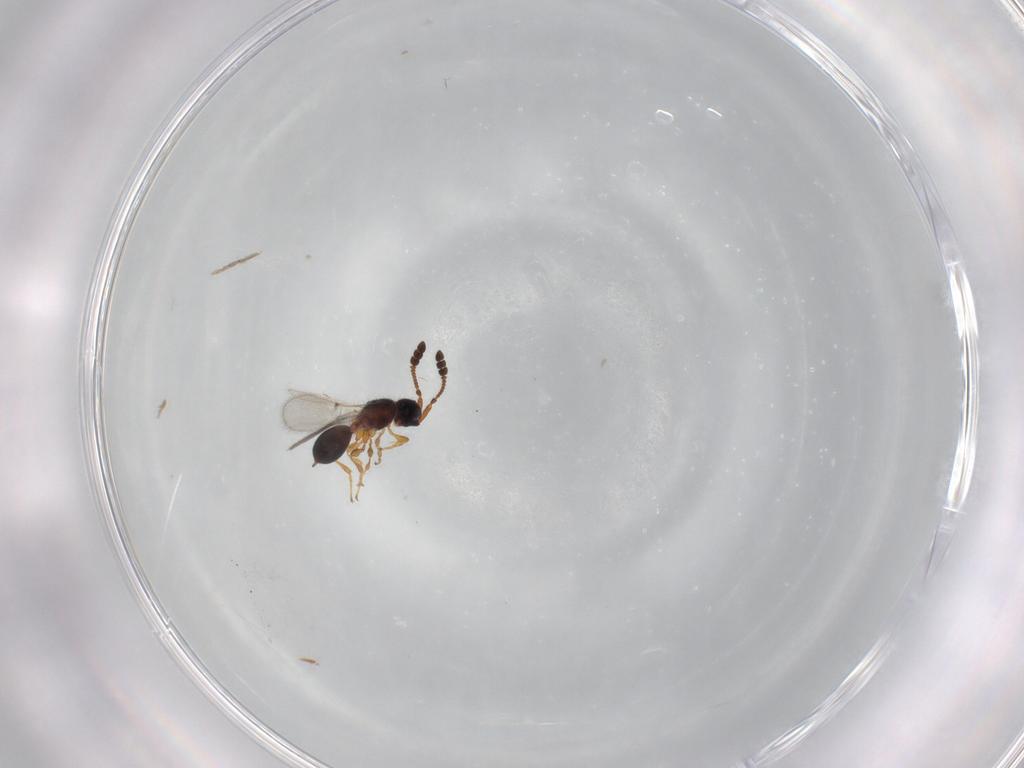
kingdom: Animalia
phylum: Arthropoda
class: Insecta
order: Hymenoptera
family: Diapriidae
